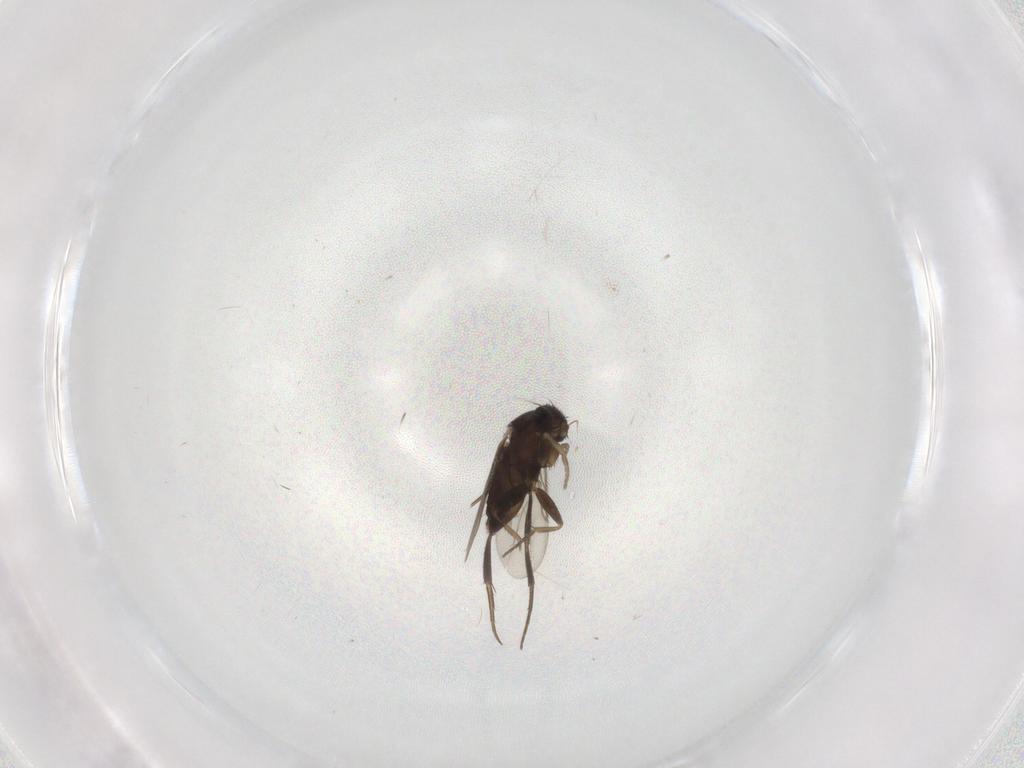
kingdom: Animalia
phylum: Arthropoda
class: Insecta
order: Diptera
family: Phoridae
